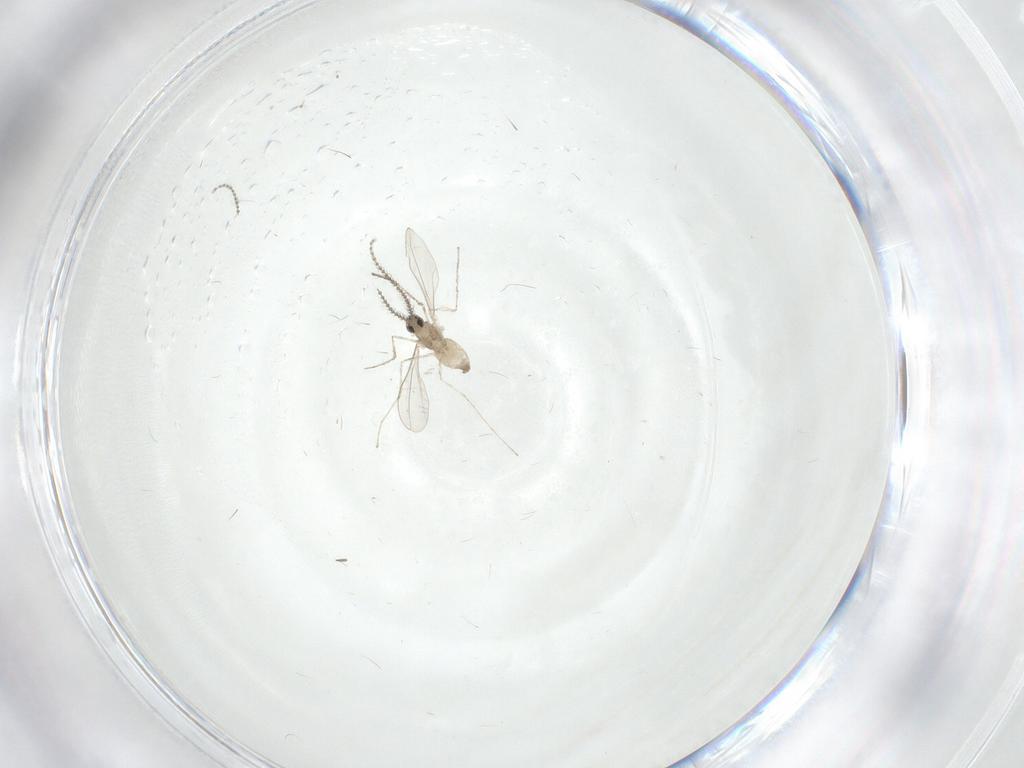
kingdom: Animalia
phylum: Arthropoda
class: Insecta
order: Diptera
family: Cecidomyiidae
